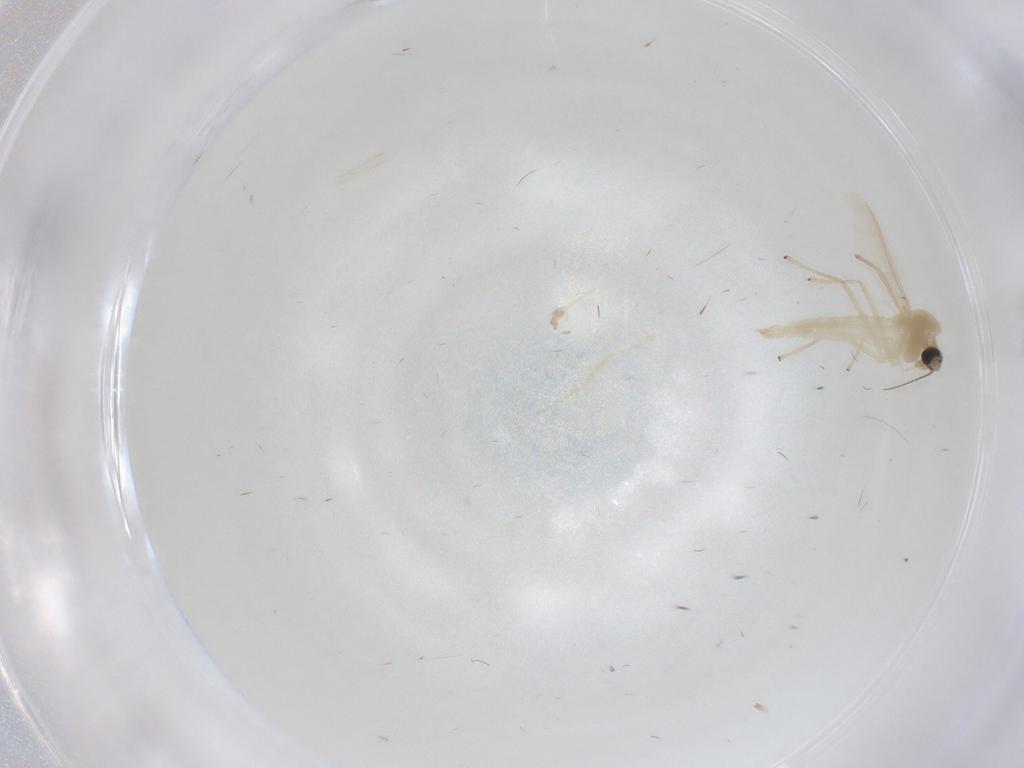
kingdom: Animalia
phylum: Arthropoda
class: Insecta
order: Diptera
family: Chironomidae
